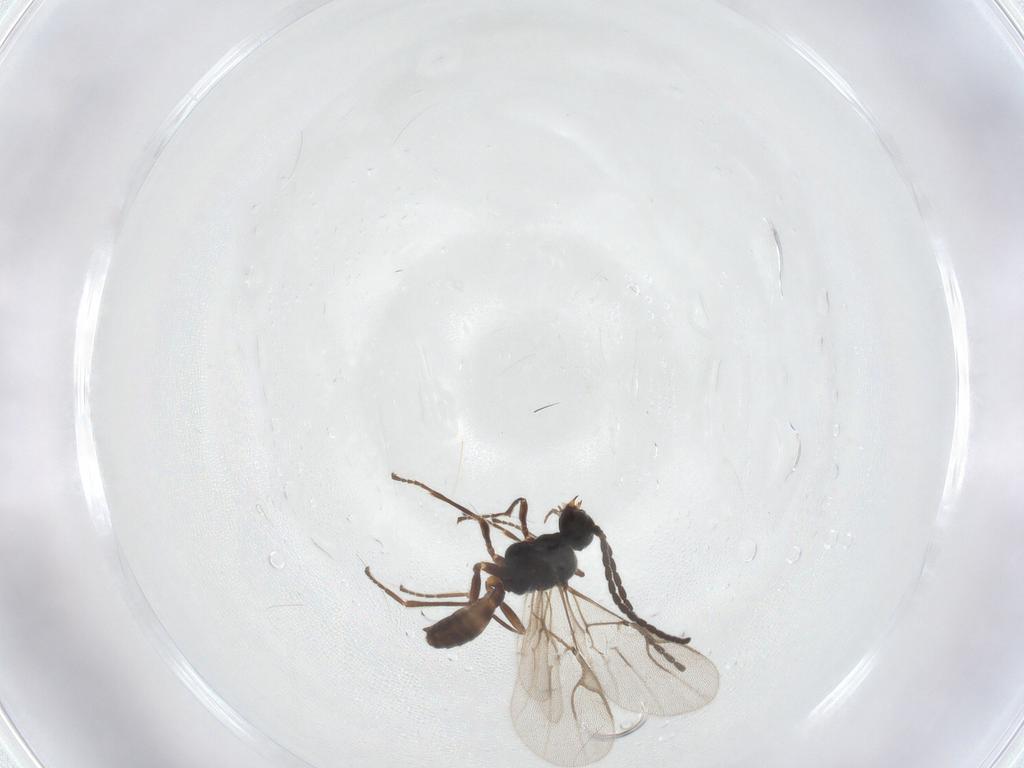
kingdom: Animalia
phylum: Arthropoda
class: Insecta
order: Hymenoptera
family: Braconidae
